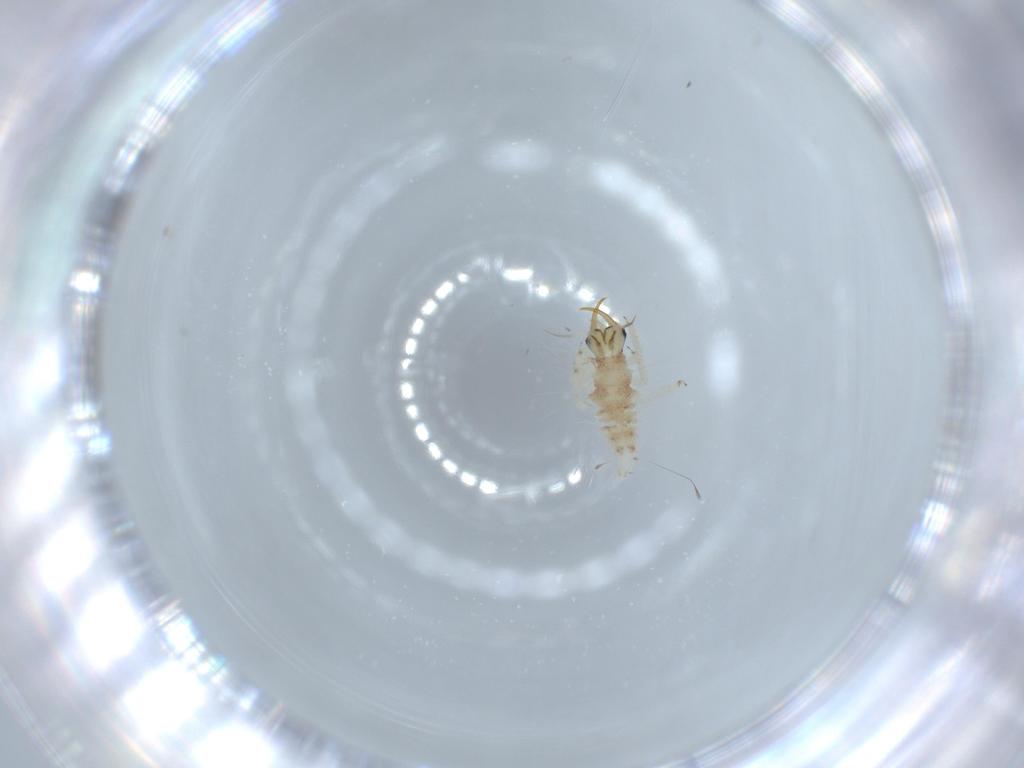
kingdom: Animalia
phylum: Arthropoda
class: Insecta
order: Neuroptera
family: Chrysopidae
